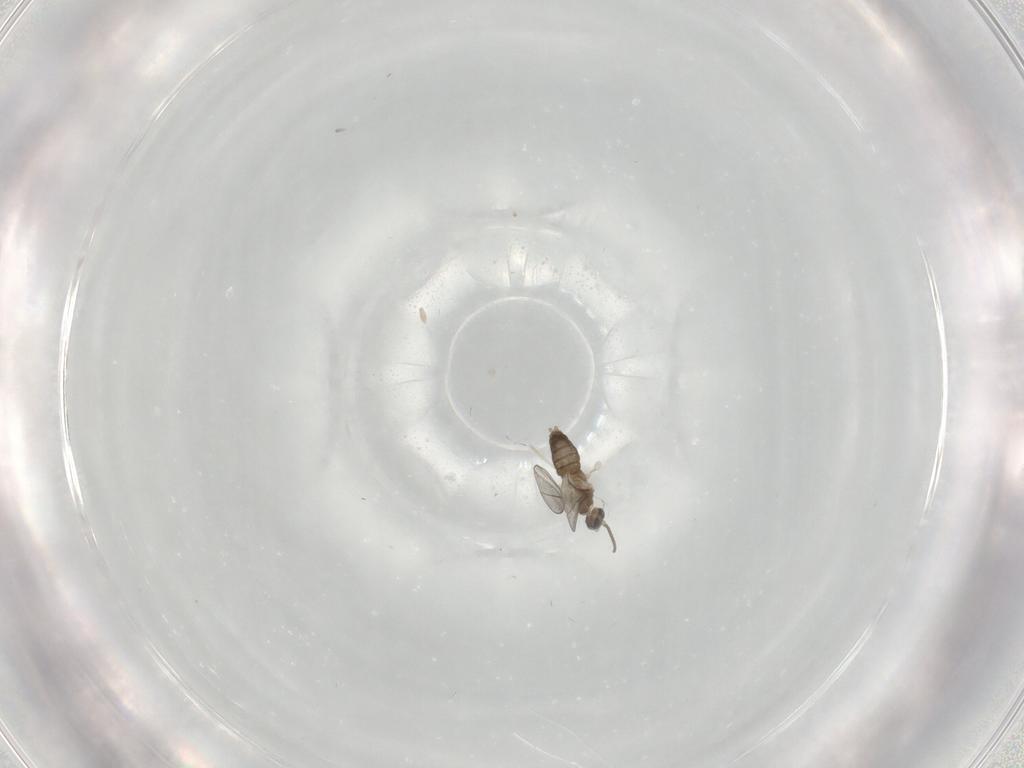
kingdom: Animalia
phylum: Arthropoda
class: Insecta
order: Diptera
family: Cecidomyiidae
